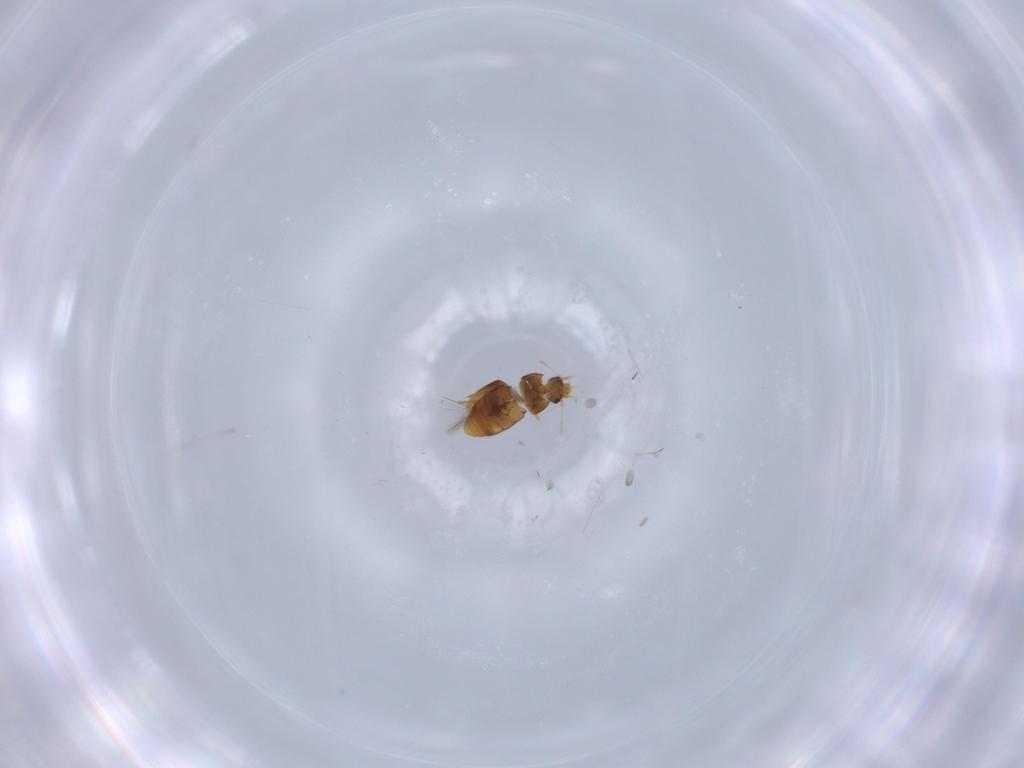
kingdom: Animalia
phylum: Arthropoda
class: Insecta
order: Coleoptera
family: Ptiliidae
